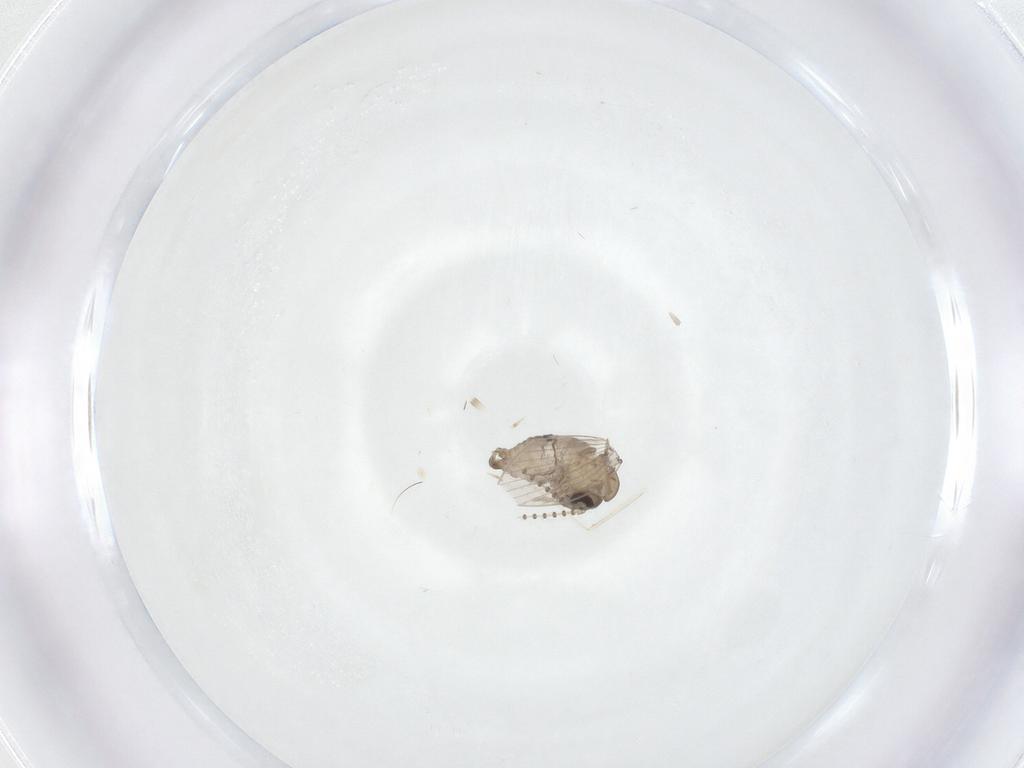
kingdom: Animalia
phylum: Arthropoda
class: Insecta
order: Diptera
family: Psychodidae
